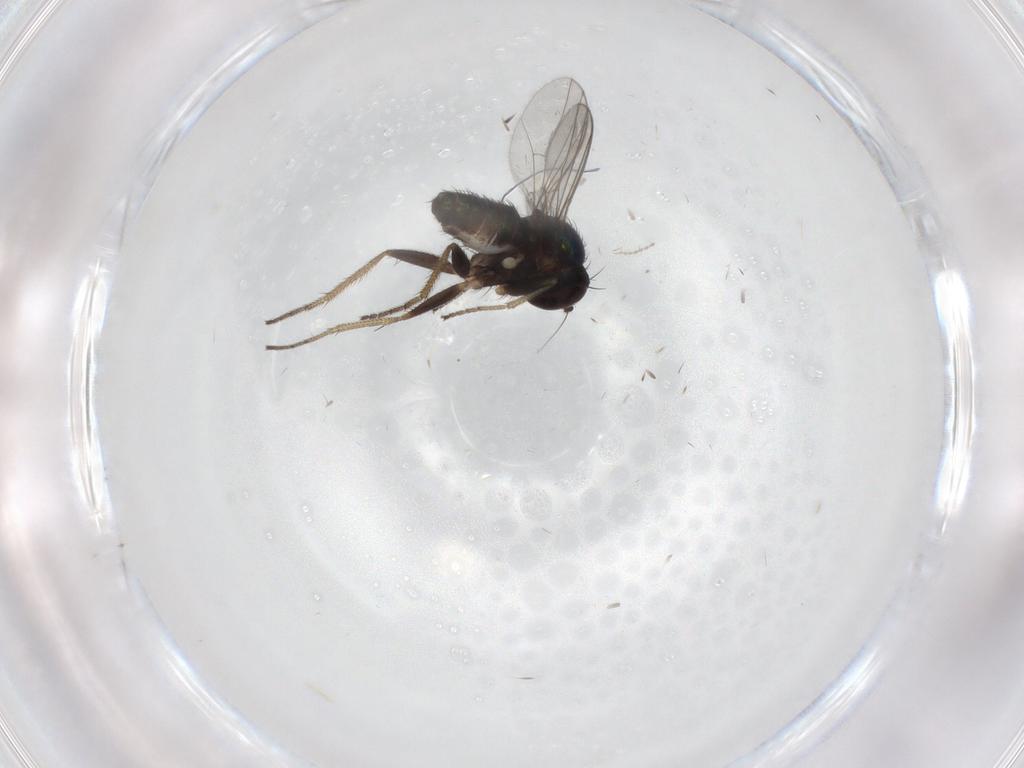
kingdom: Animalia
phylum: Arthropoda
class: Insecta
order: Diptera
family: Dolichopodidae
